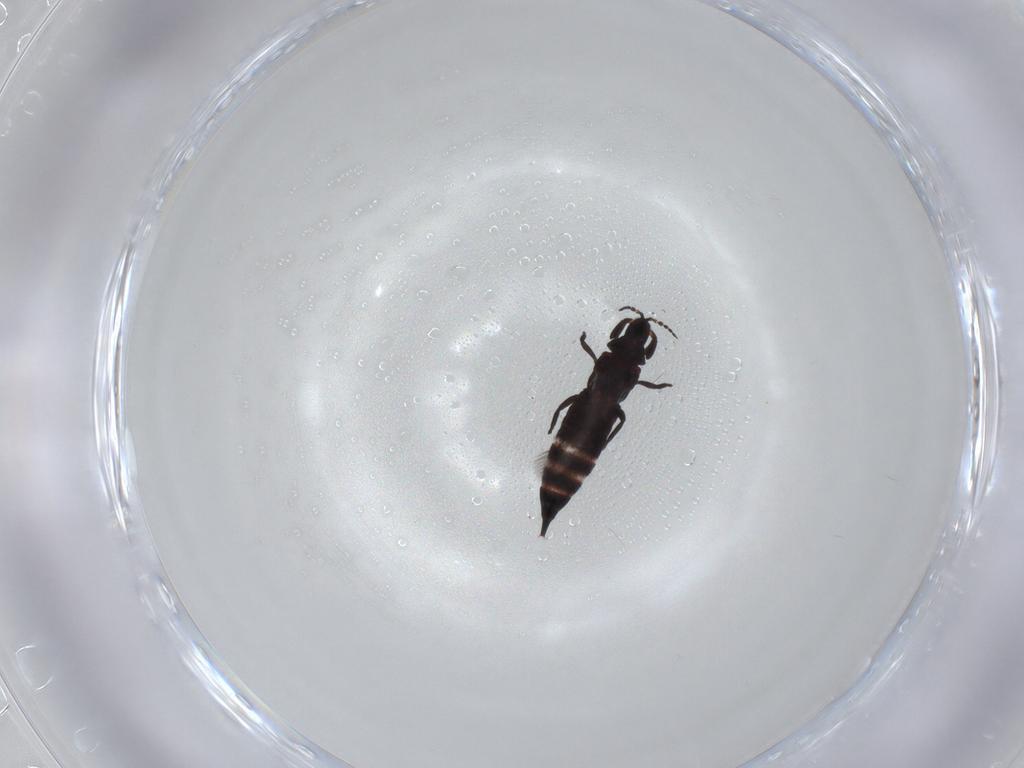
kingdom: Animalia
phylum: Arthropoda
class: Insecta
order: Thysanoptera
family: Phlaeothripidae
